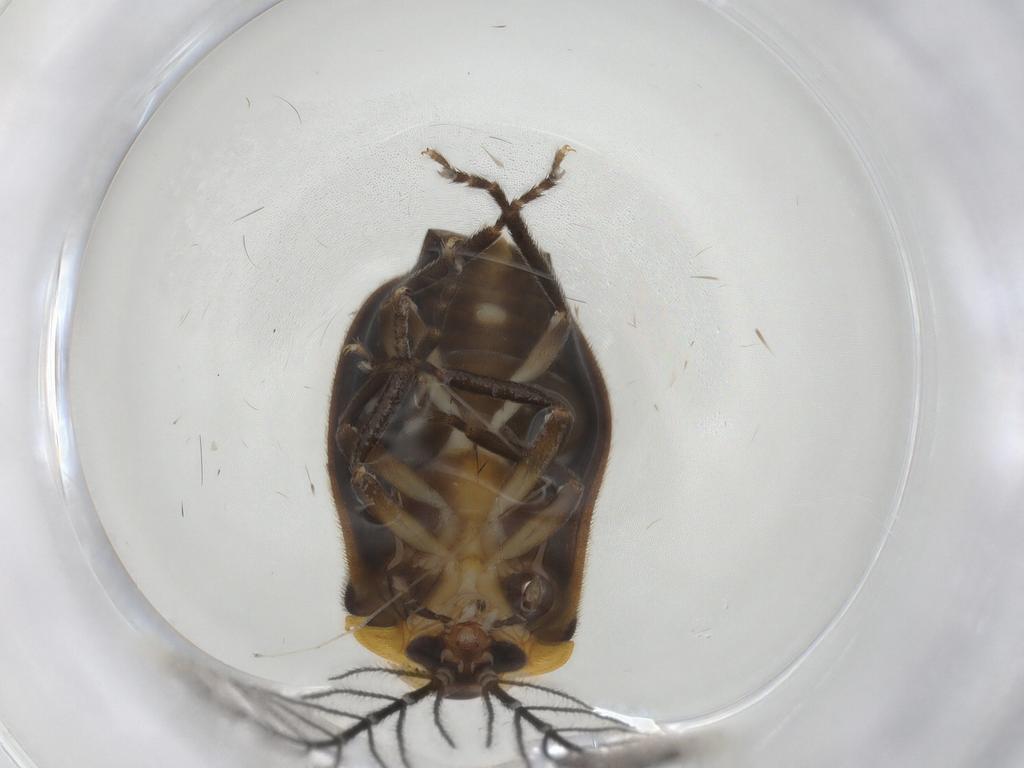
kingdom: Animalia
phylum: Arthropoda
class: Insecta
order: Coleoptera
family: Lampyridae
